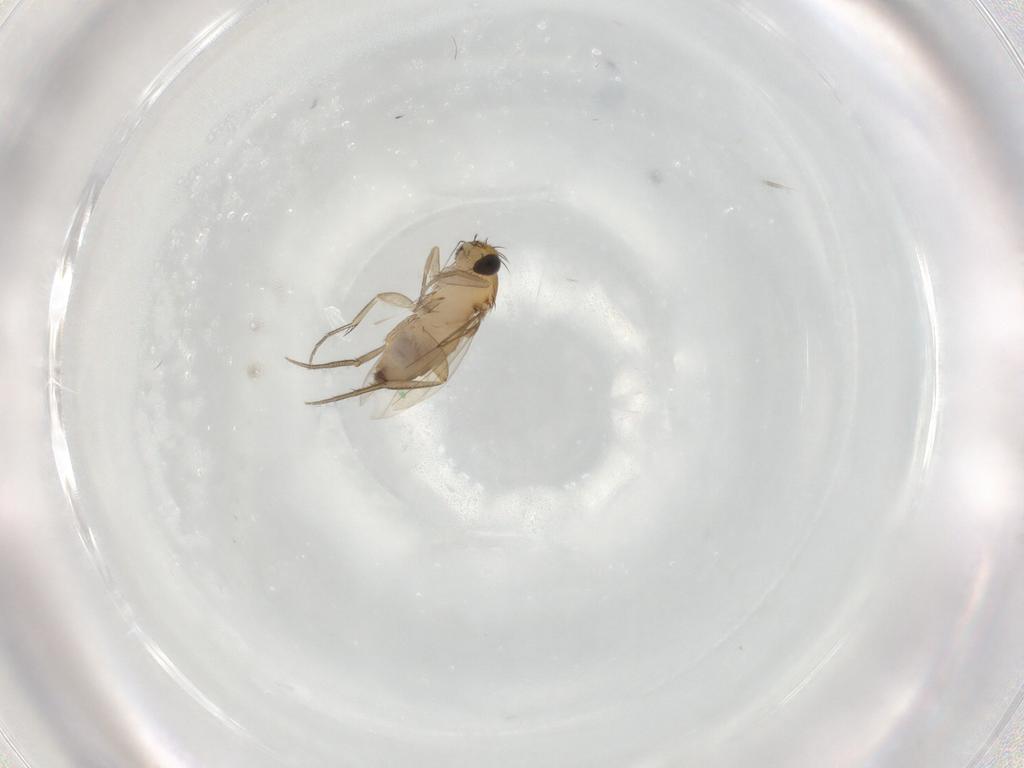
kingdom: Animalia
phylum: Arthropoda
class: Insecta
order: Diptera
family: Phoridae
